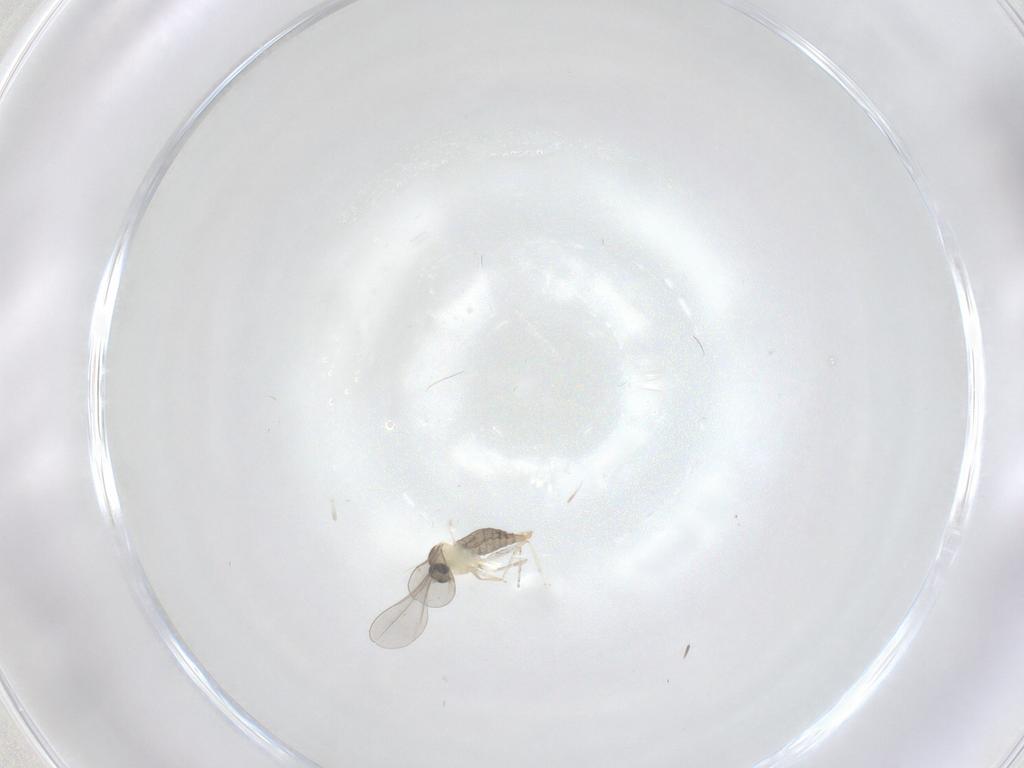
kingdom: Animalia
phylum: Arthropoda
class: Insecta
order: Diptera
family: Phoridae
